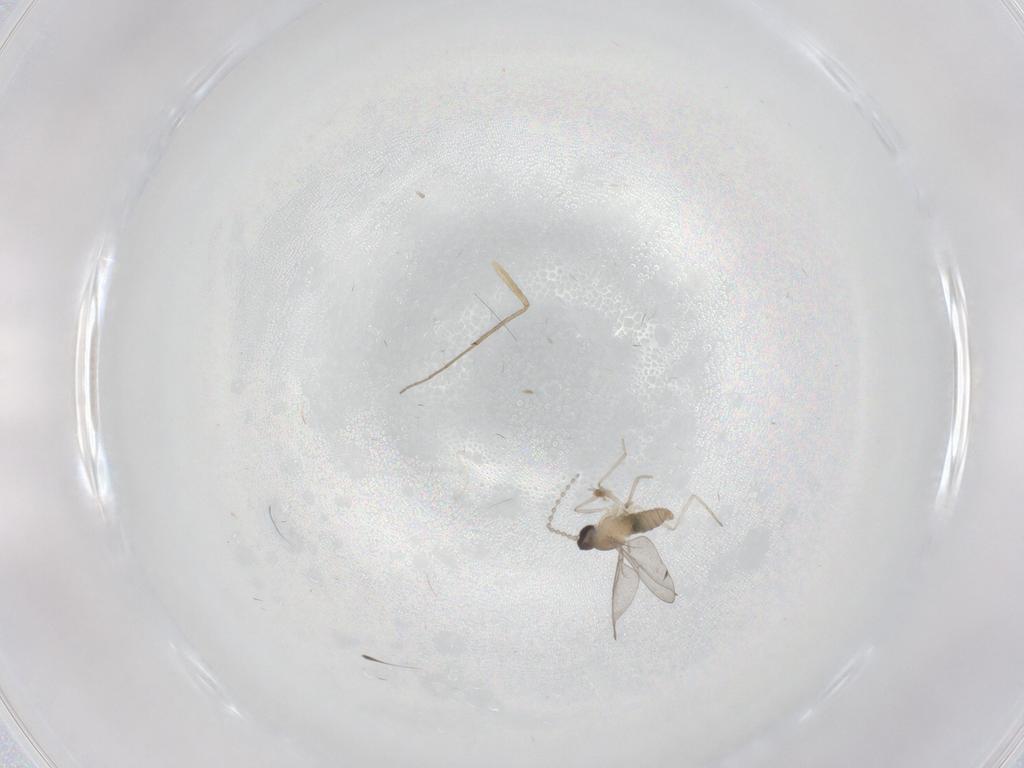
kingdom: Animalia
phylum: Arthropoda
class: Insecta
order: Diptera
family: Cecidomyiidae
